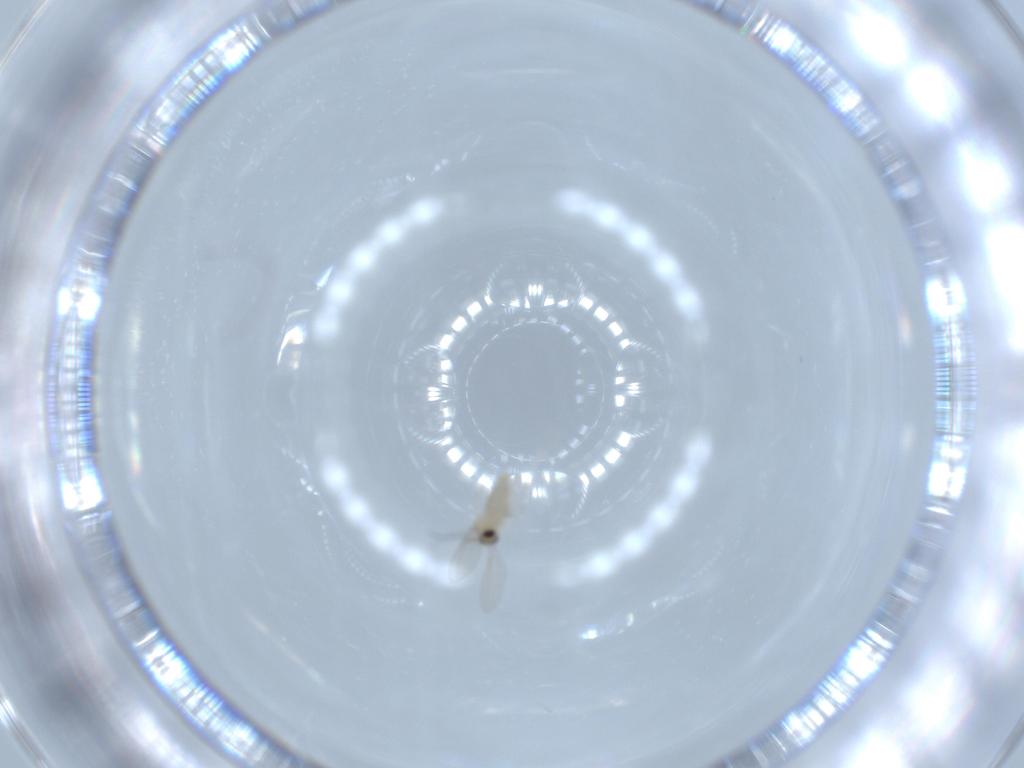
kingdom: Animalia
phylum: Arthropoda
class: Insecta
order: Diptera
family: Cecidomyiidae
